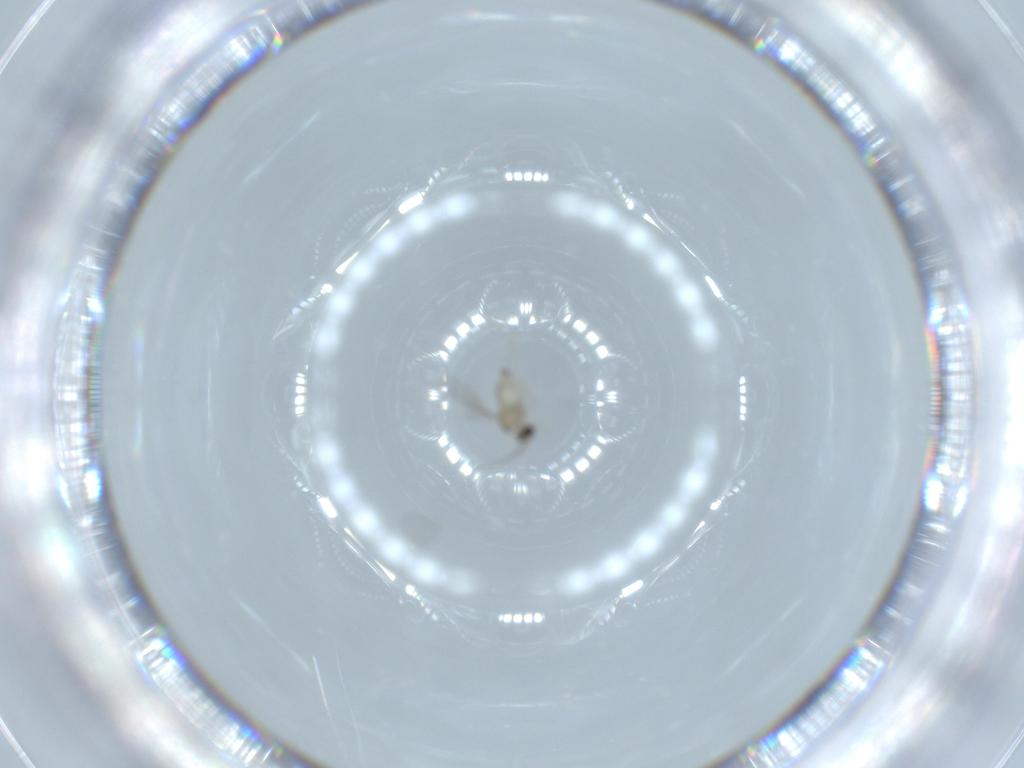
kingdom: Animalia
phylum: Arthropoda
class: Insecta
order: Diptera
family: Cecidomyiidae
